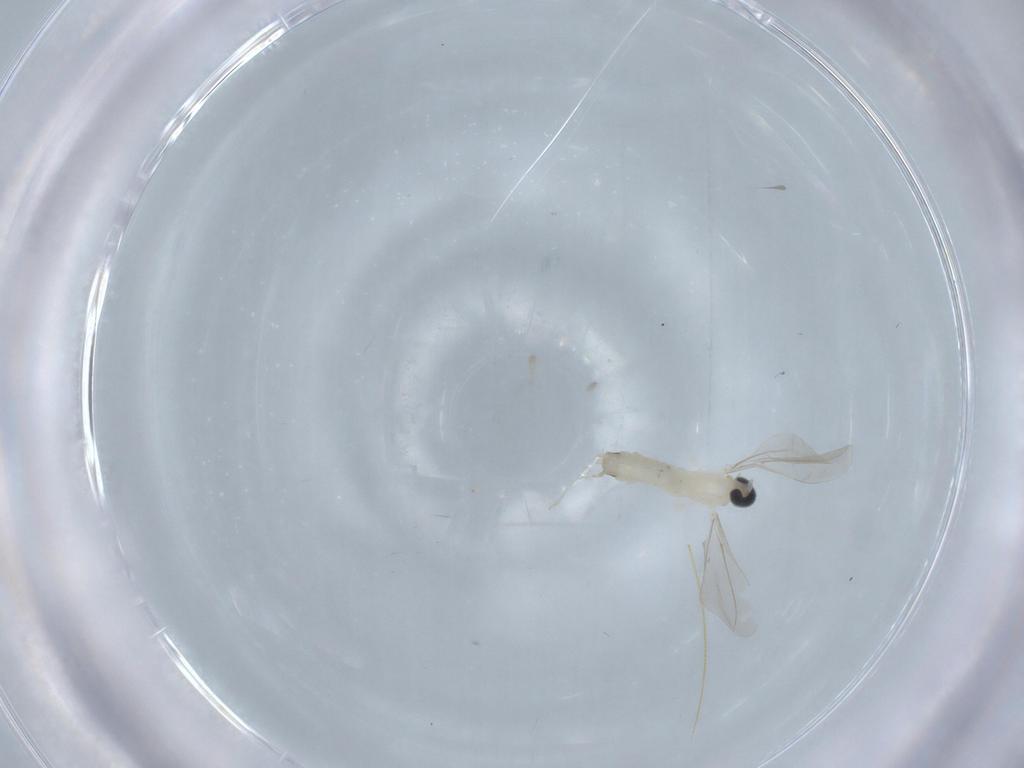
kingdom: Animalia
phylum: Arthropoda
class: Insecta
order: Diptera
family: Cecidomyiidae
